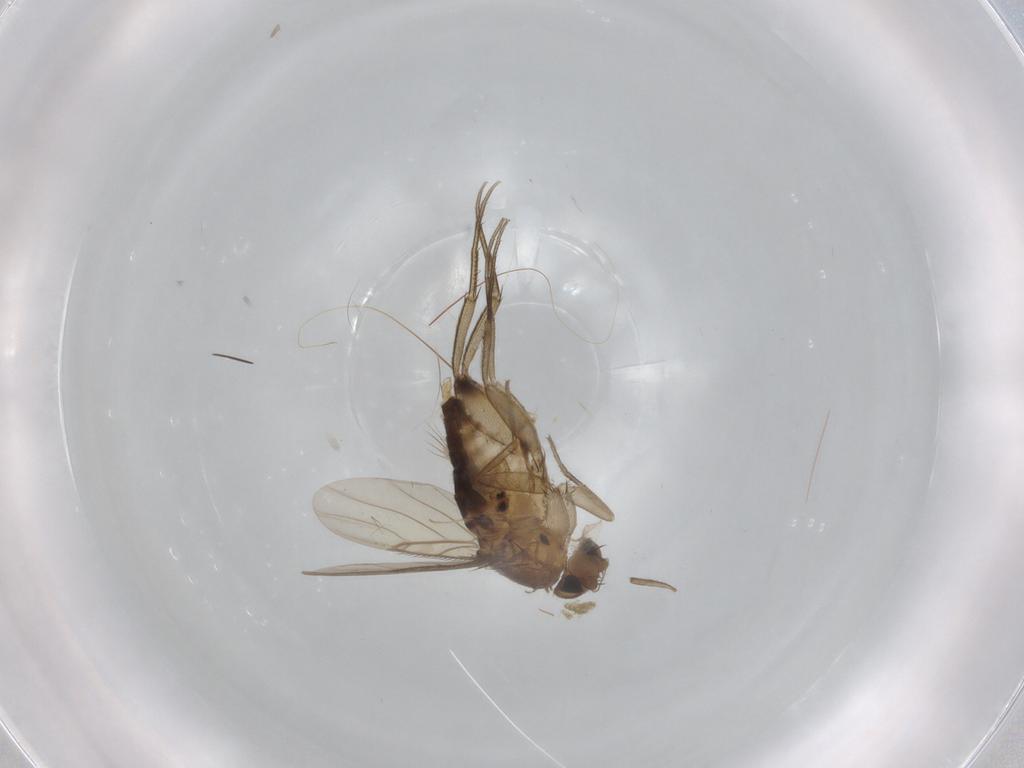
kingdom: Animalia
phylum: Arthropoda
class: Insecta
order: Diptera
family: Cecidomyiidae
